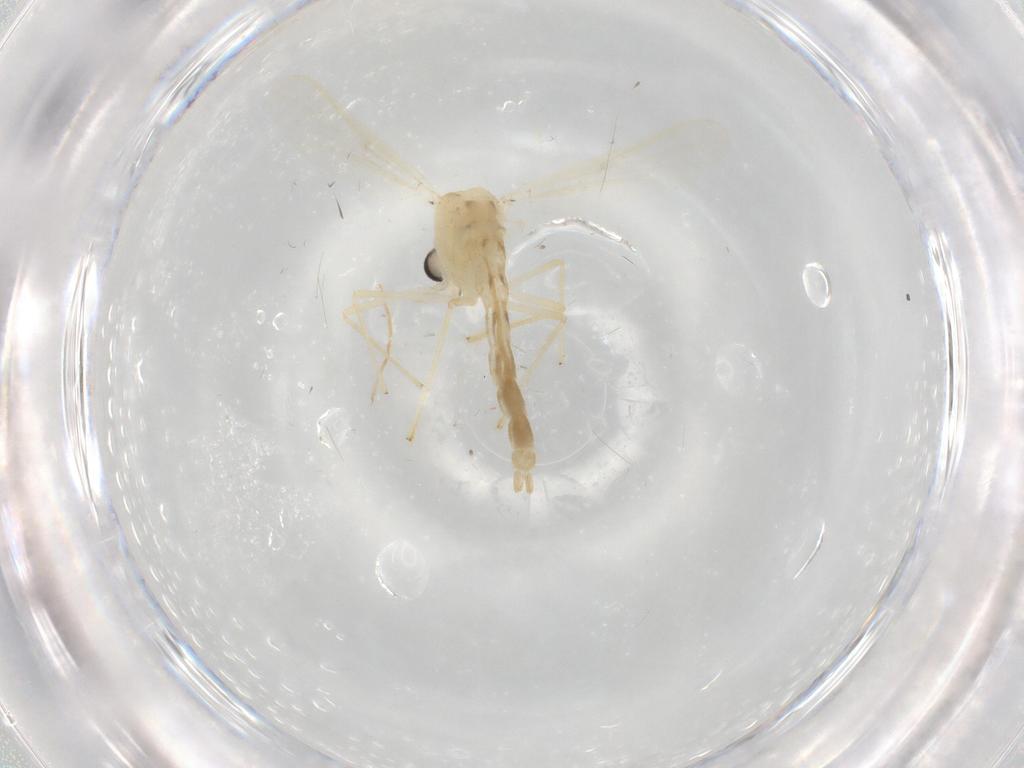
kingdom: Animalia
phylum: Arthropoda
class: Insecta
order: Diptera
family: Chironomidae
